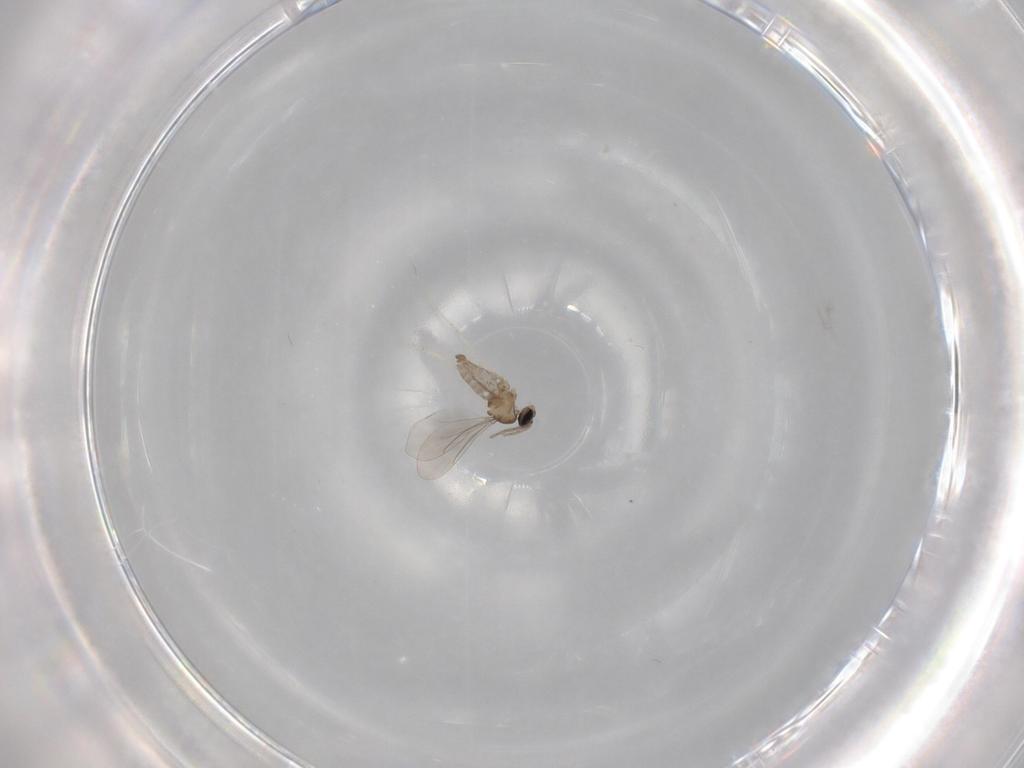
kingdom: Animalia
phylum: Arthropoda
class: Insecta
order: Diptera
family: Cecidomyiidae
